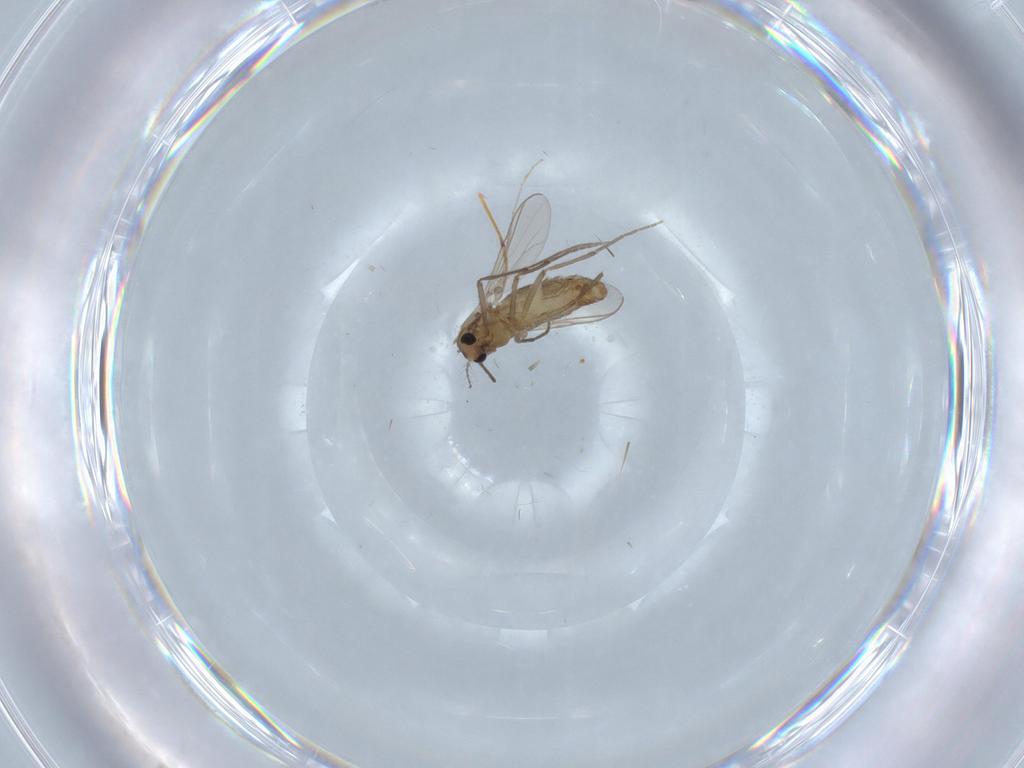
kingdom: Animalia
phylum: Arthropoda
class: Insecta
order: Diptera
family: Chironomidae
